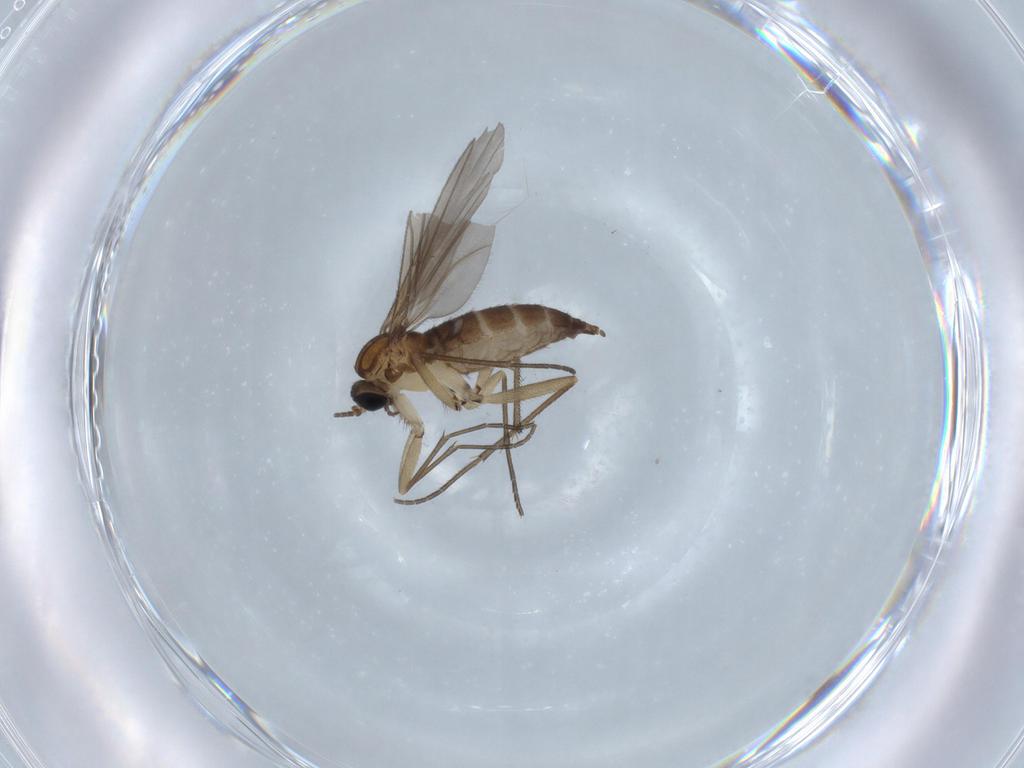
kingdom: Animalia
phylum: Arthropoda
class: Insecta
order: Diptera
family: Sciaridae
